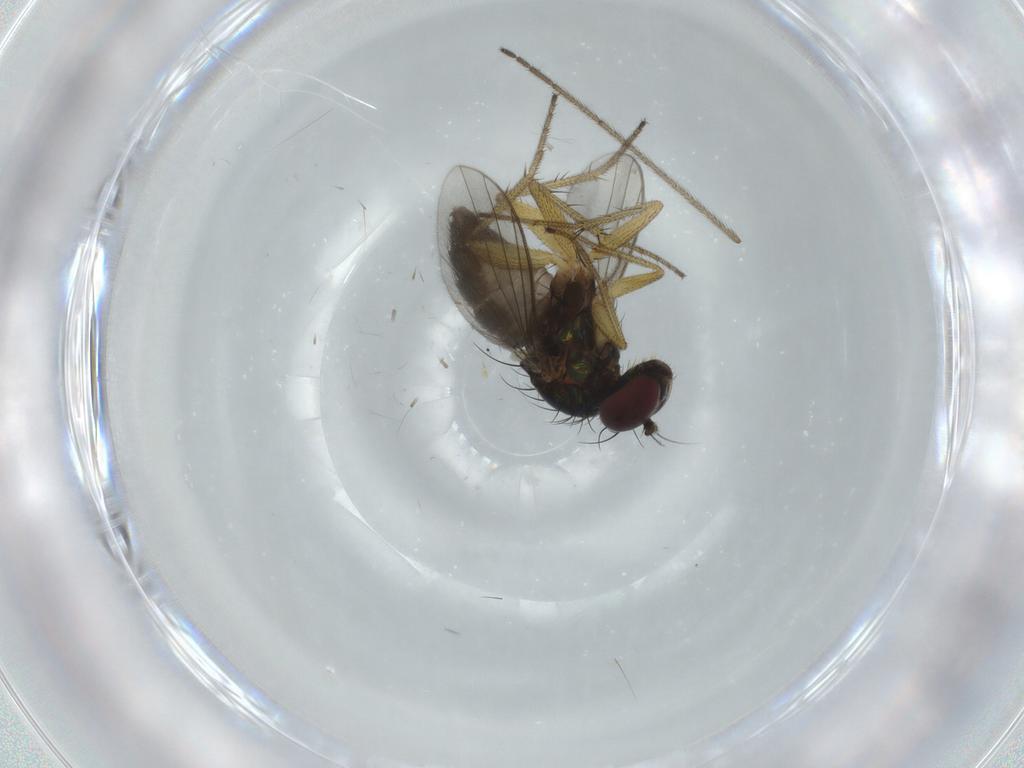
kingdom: Animalia
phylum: Arthropoda
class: Insecta
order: Diptera
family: Dolichopodidae
